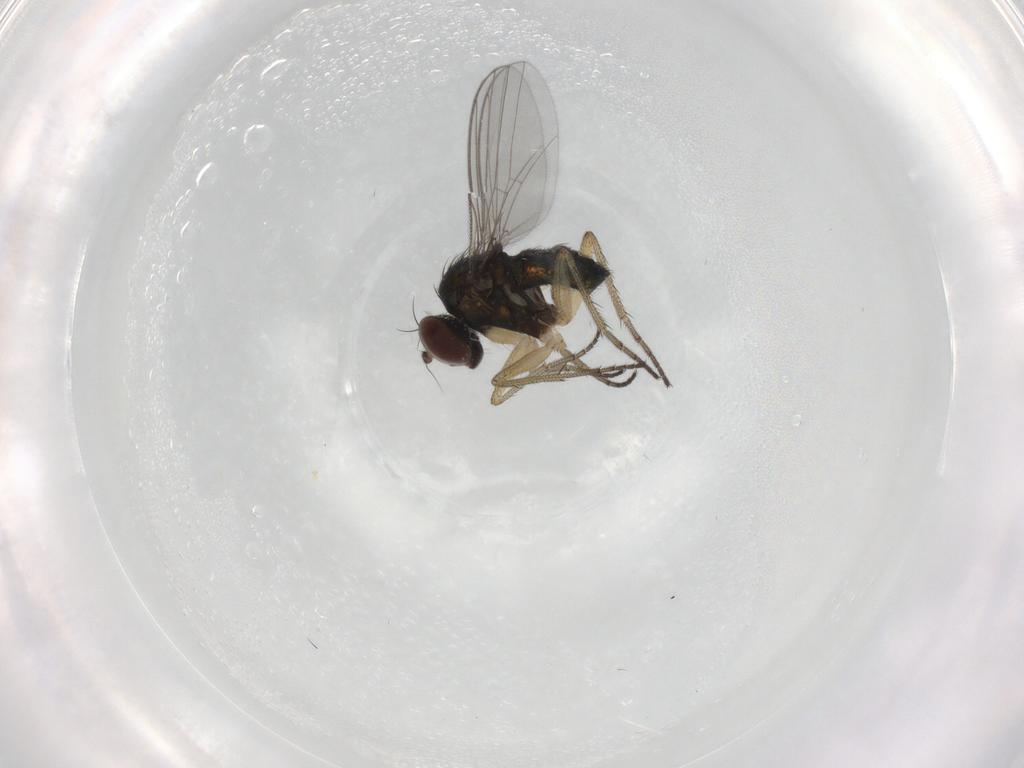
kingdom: Animalia
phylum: Arthropoda
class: Insecta
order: Diptera
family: Dolichopodidae
